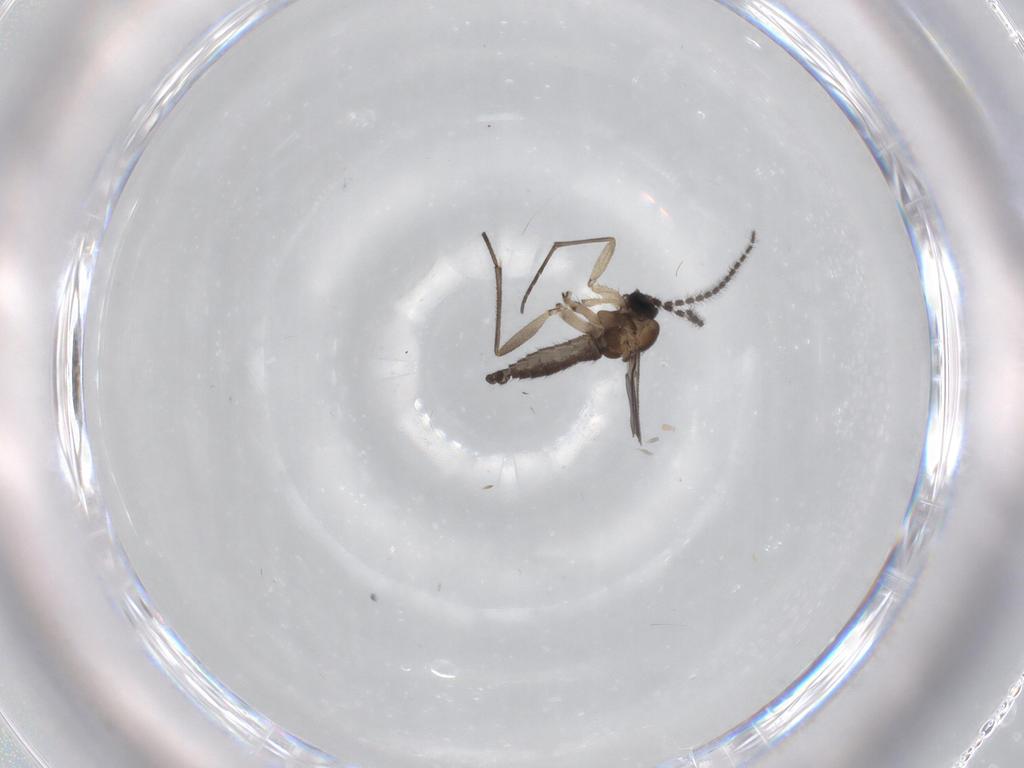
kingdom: Animalia
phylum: Arthropoda
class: Insecta
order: Diptera
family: Sciaridae
